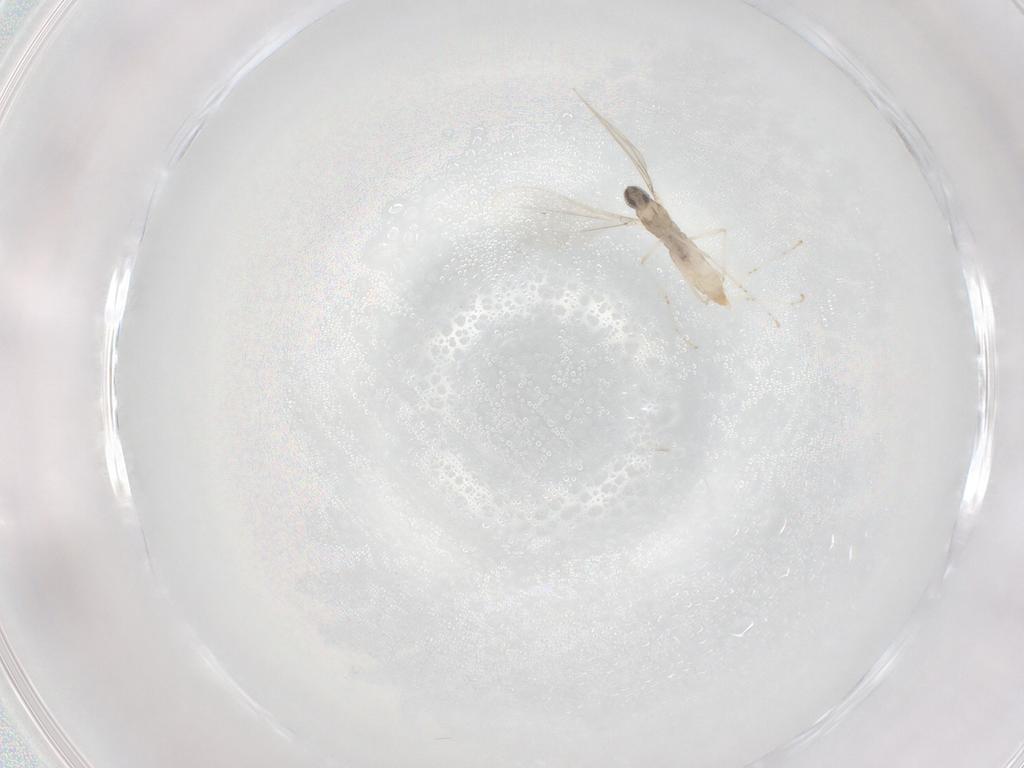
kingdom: Animalia
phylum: Arthropoda
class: Insecta
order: Diptera
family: Cecidomyiidae
